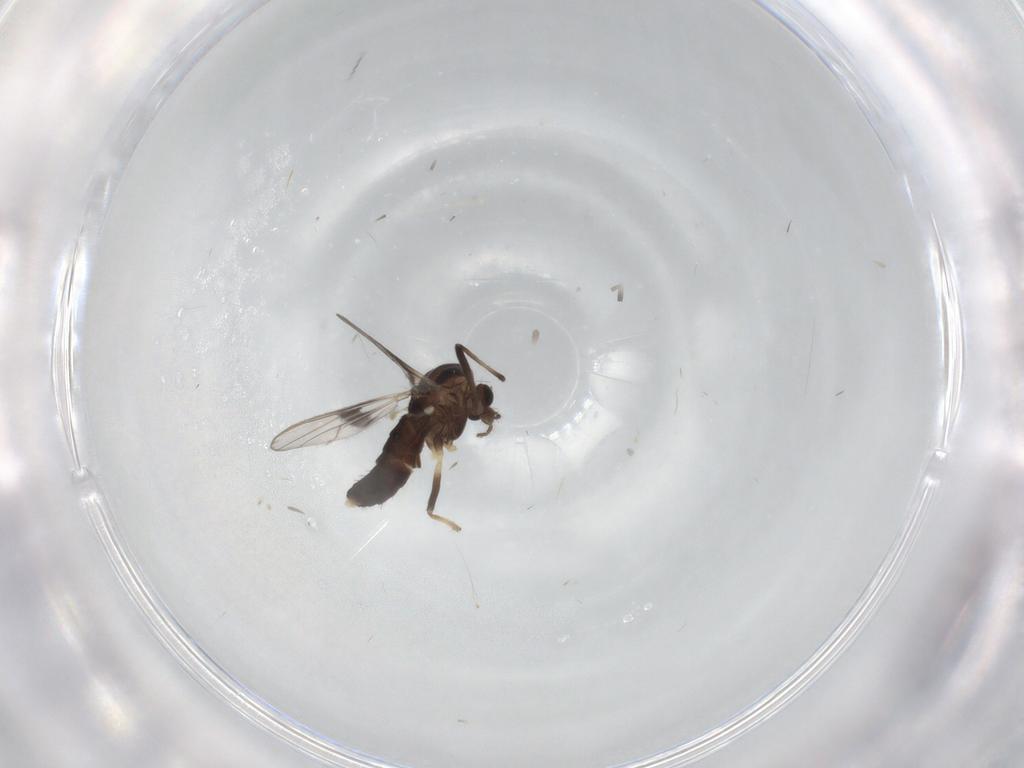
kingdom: Animalia
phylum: Arthropoda
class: Insecta
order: Diptera
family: Chironomidae
